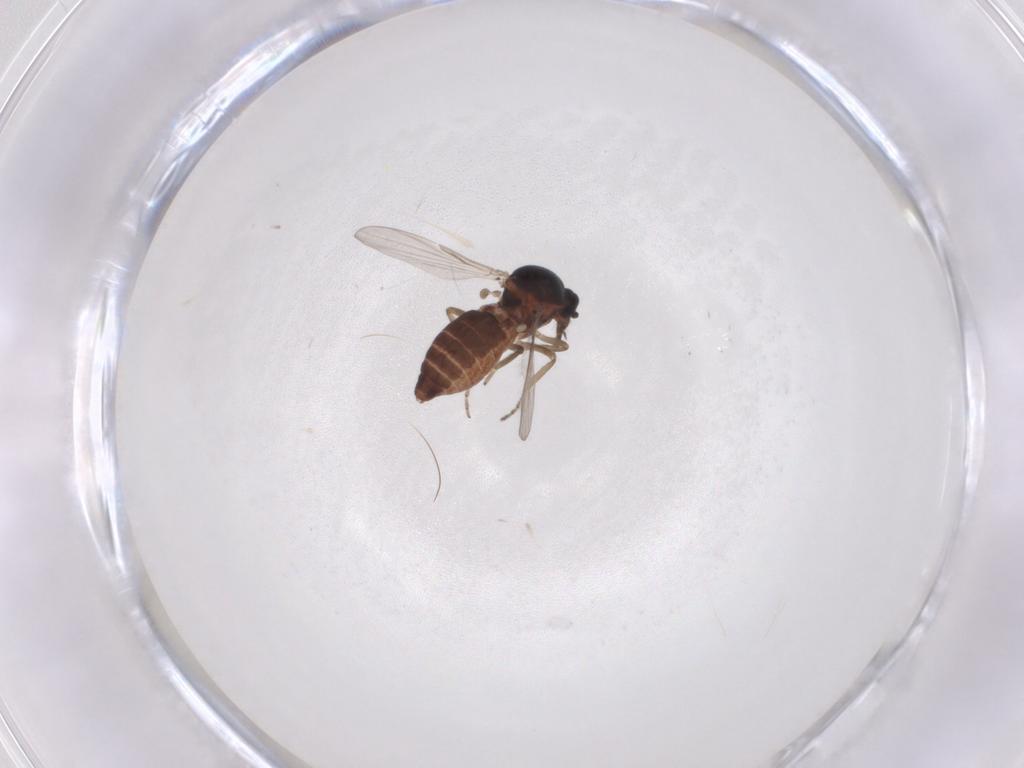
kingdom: Animalia
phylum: Arthropoda
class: Insecta
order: Diptera
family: Ceratopogonidae
